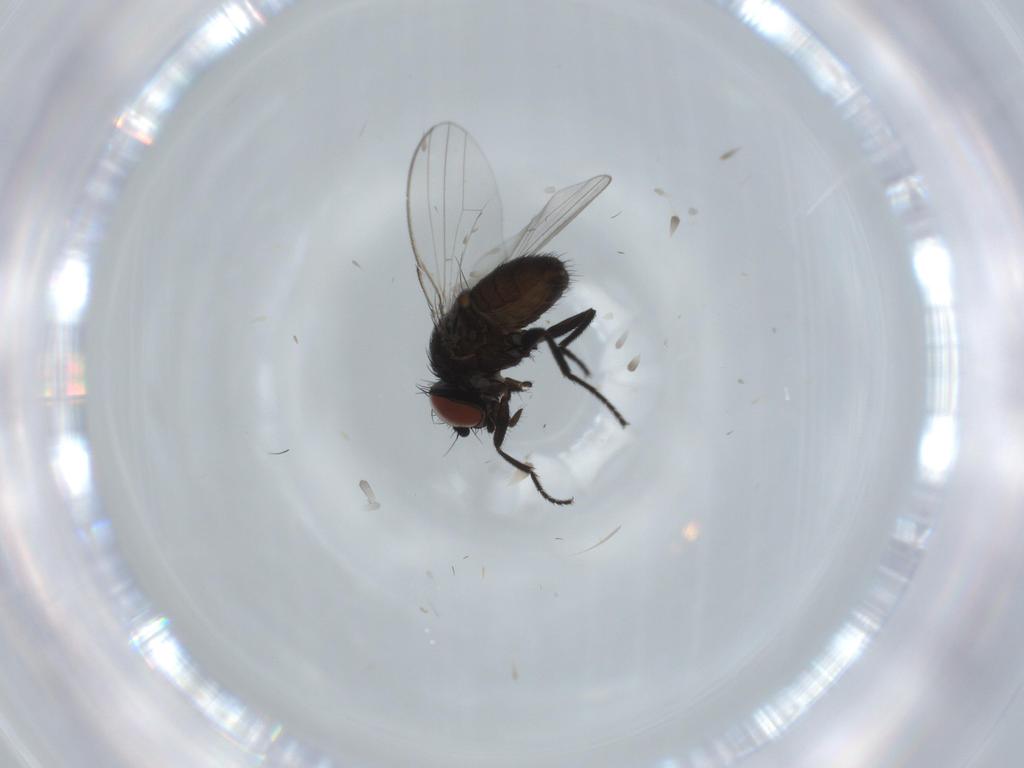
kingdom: Animalia
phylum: Arthropoda
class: Insecta
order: Diptera
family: Milichiidae
